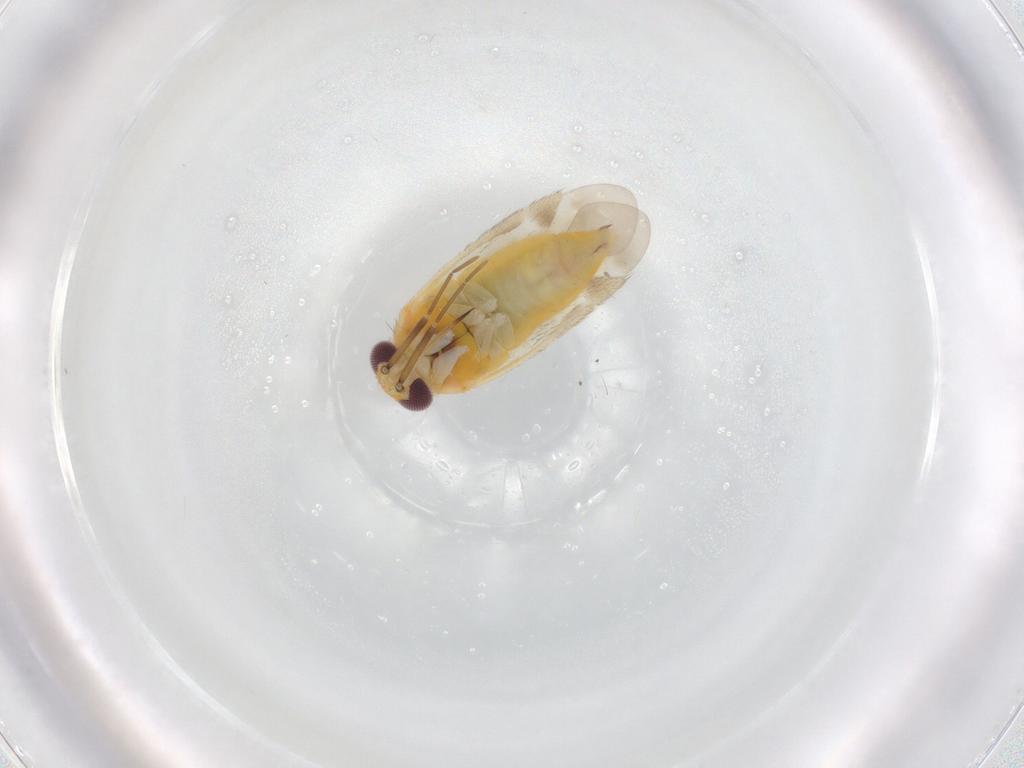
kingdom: Animalia
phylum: Arthropoda
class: Insecta
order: Hemiptera
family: Miridae
